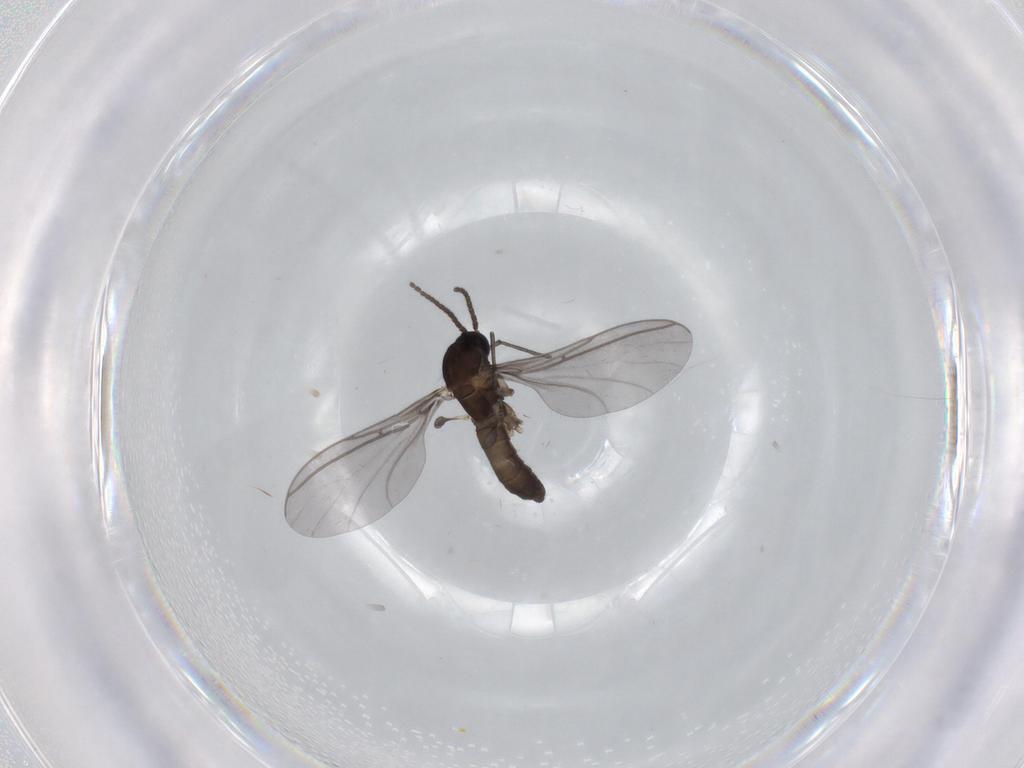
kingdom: Animalia
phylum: Arthropoda
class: Insecta
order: Diptera
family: Sciaridae
